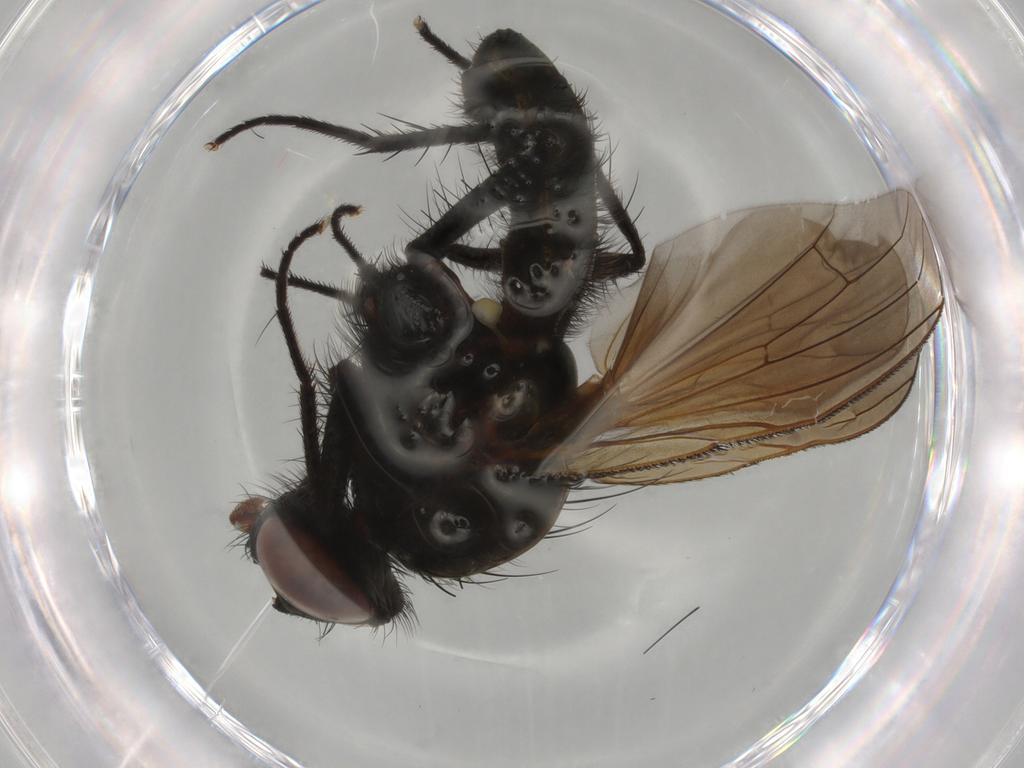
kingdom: Animalia
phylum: Arthropoda
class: Insecta
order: Diptera
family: Anthomyiidae
